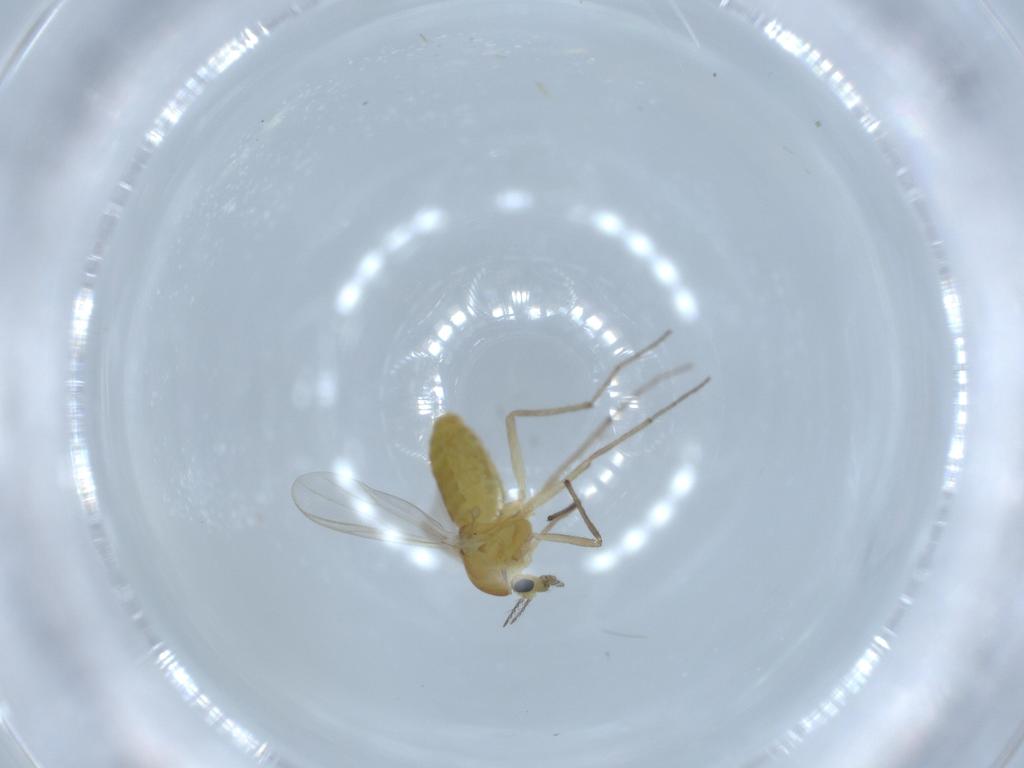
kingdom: Animalia
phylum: Arthropoda
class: Insecta
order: Diptera
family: Chironomidae
